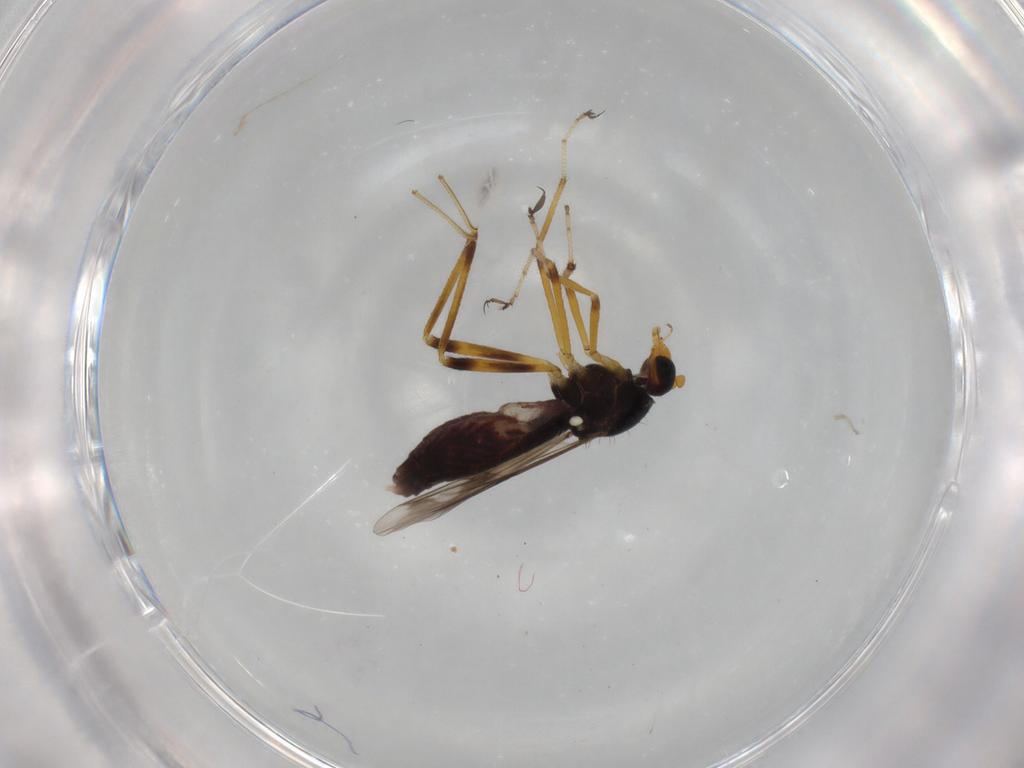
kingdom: Animalia
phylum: Arthropoda
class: Insecta
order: Diptera
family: Ceratopogonidae
